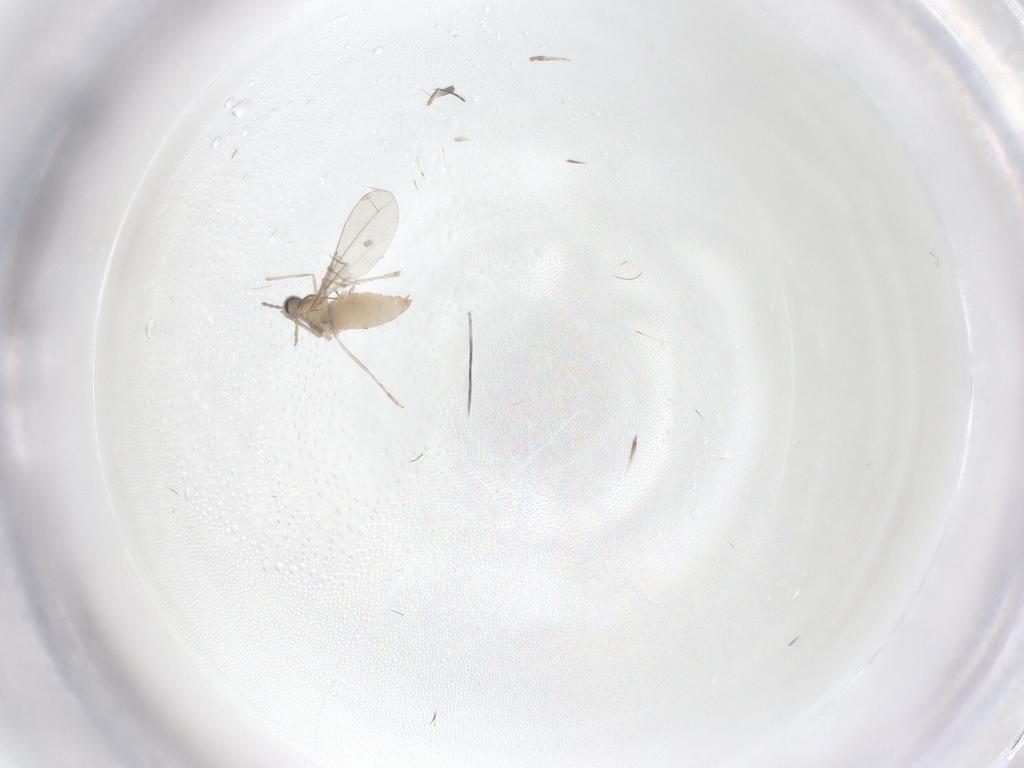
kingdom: Animalia
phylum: Arthropoda
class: Insecta
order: Diptera
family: Cecidomyiidae
